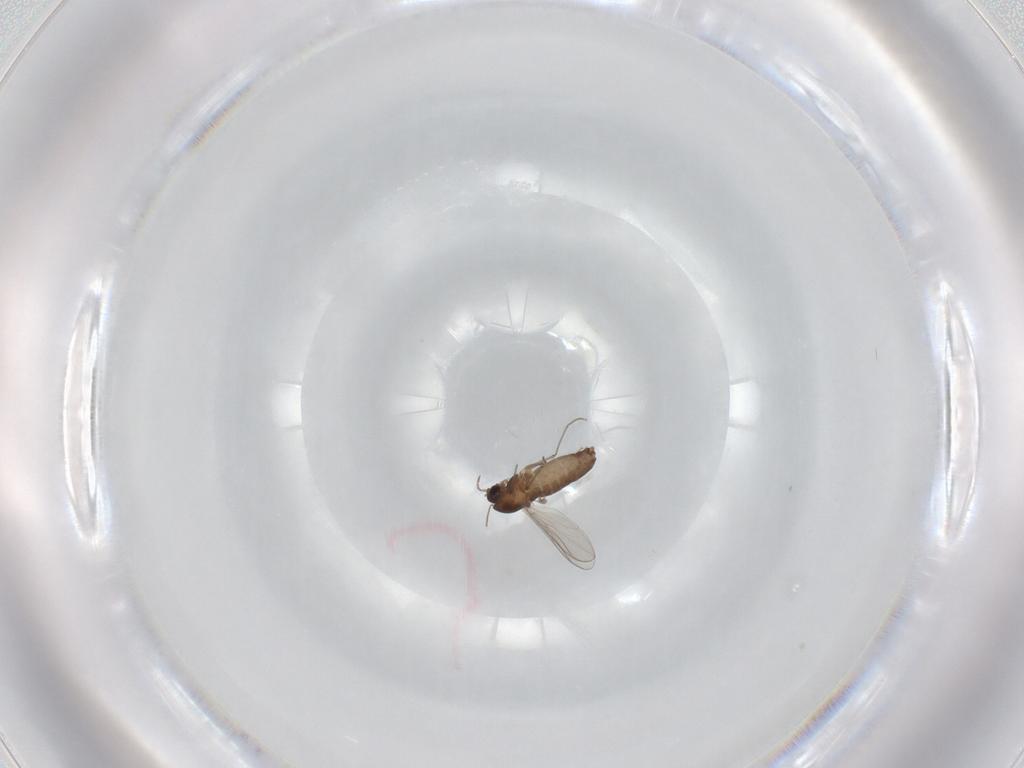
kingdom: Animalia
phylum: Arthropoda
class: Insecta
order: Diptera
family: Chironomidae
